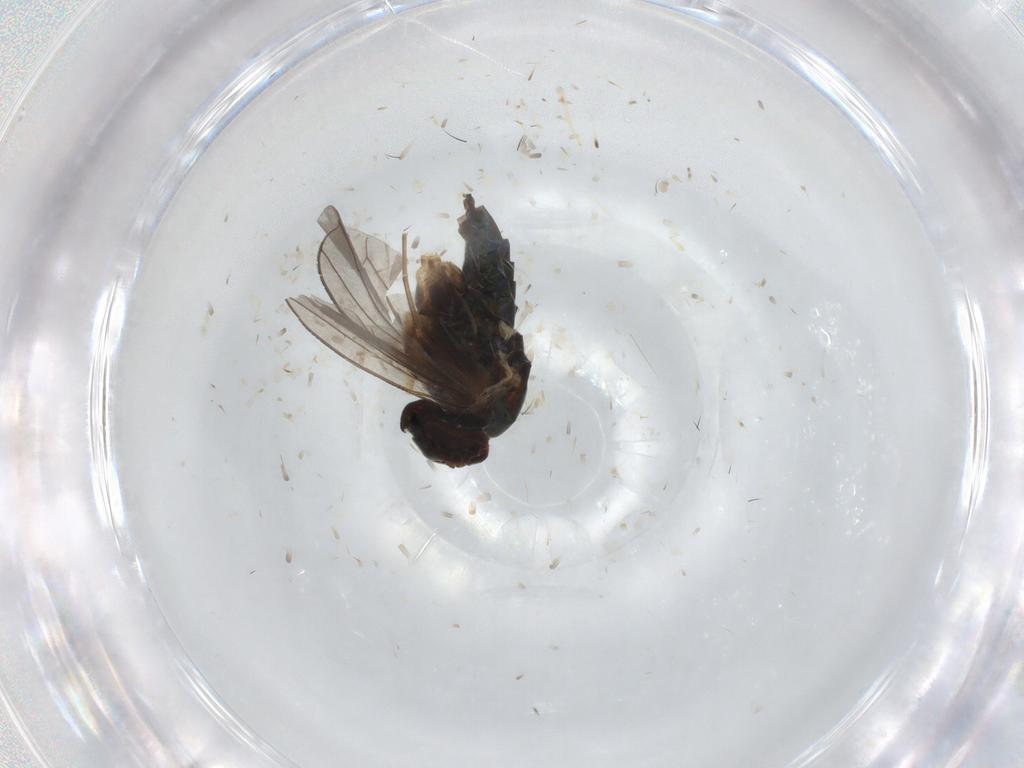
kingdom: Animalia
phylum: Arthropoda
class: Insecta
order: Diptera
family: Dolichopodidae
